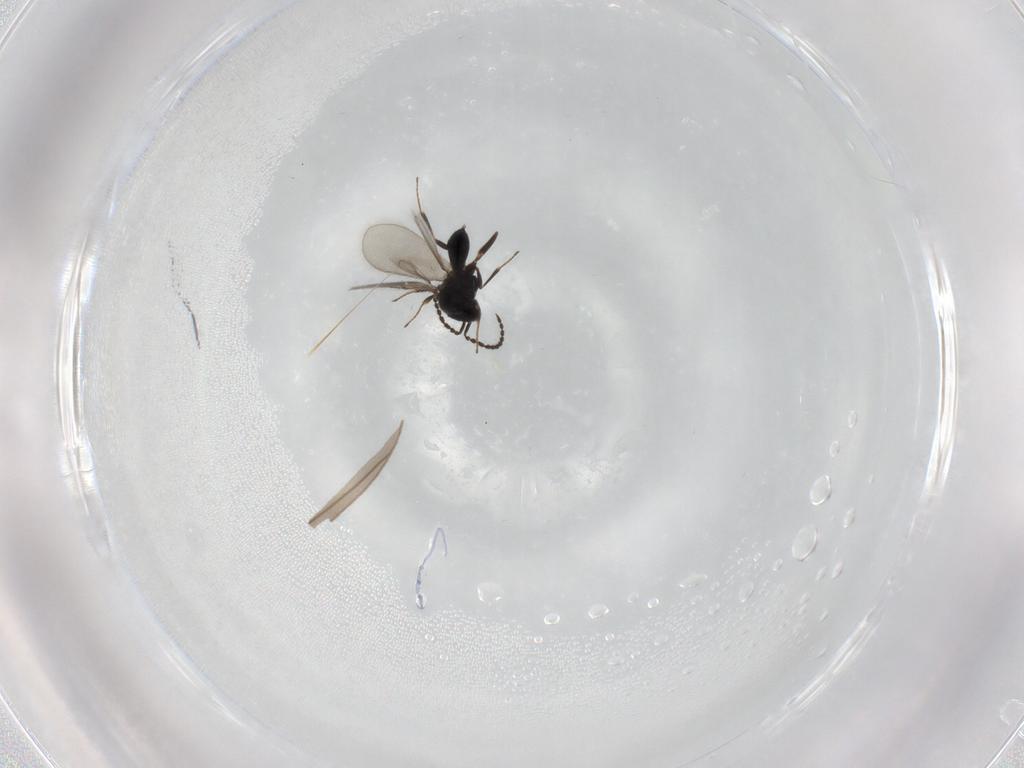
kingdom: Animalia
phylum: Arthropoda
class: Insecta
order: Hymenoptera
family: Scelionidae
